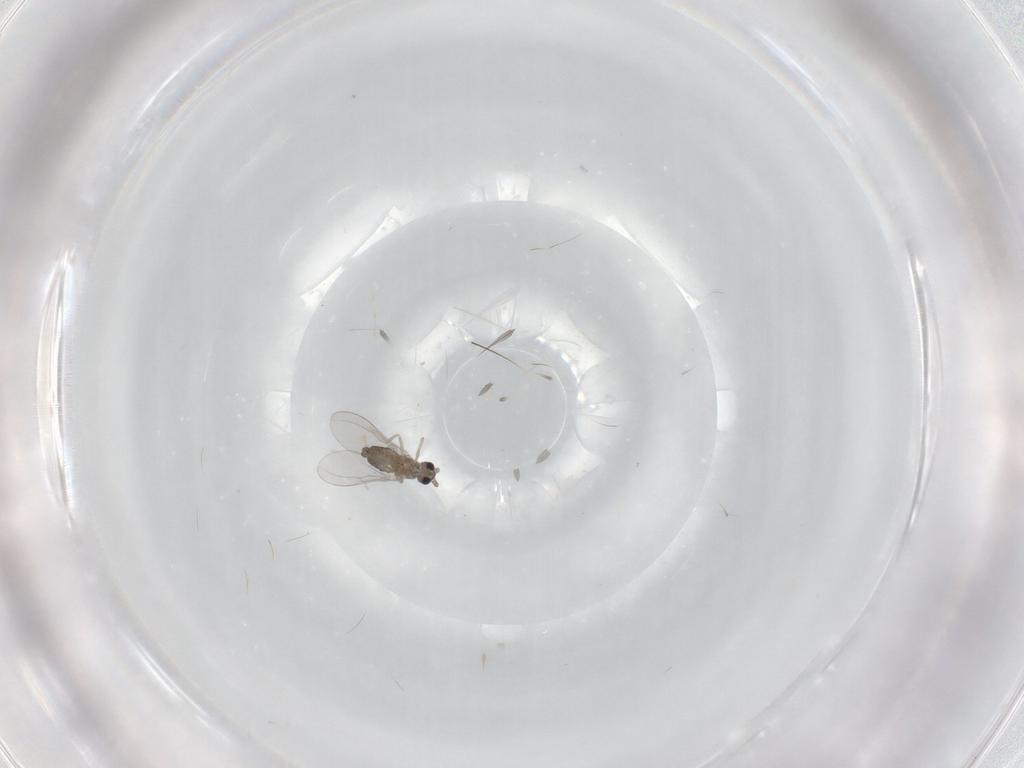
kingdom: Animalia
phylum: Arthropoda
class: Insecta
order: Diptera
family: Cecidomyiidae
